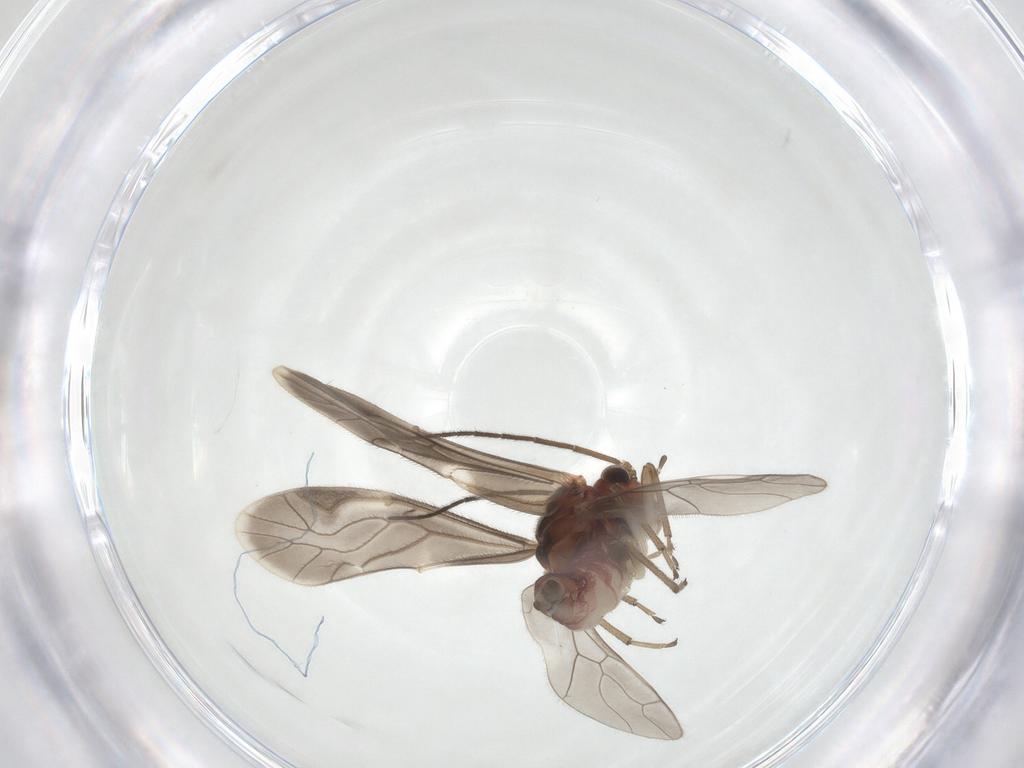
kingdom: Animalia
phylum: Arthropoda
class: Insecta
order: Psocodea
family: Caeciliusidae
